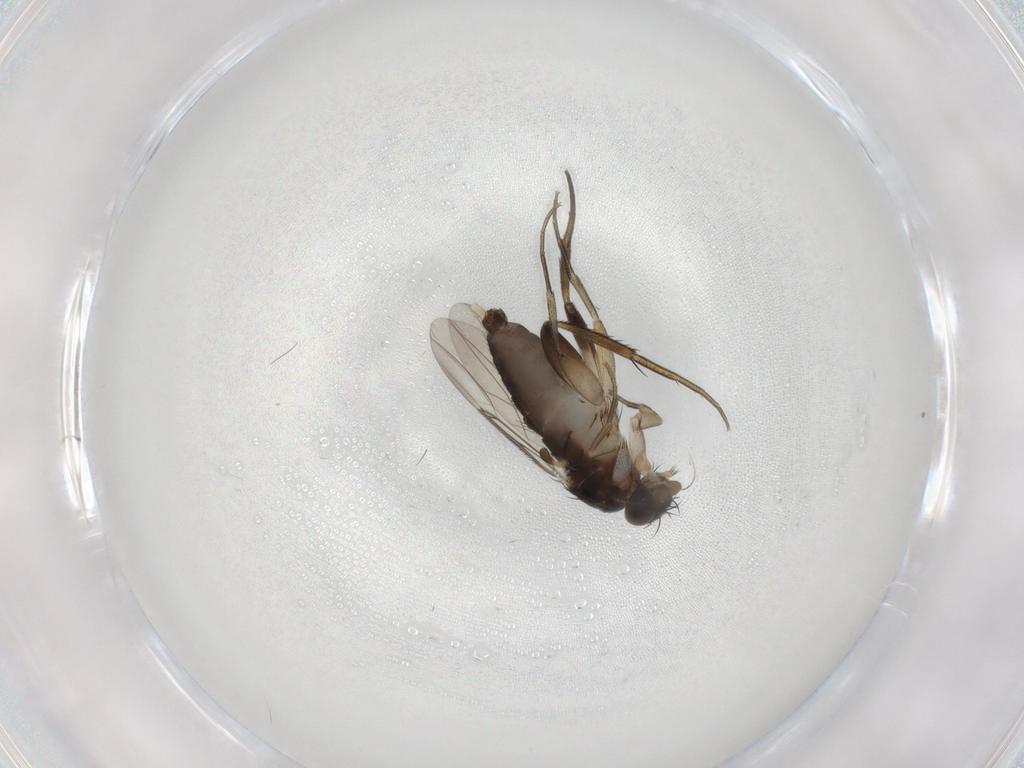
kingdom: Animalia
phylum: Arthropoda
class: Insecta
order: Diptera
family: Phoridae
